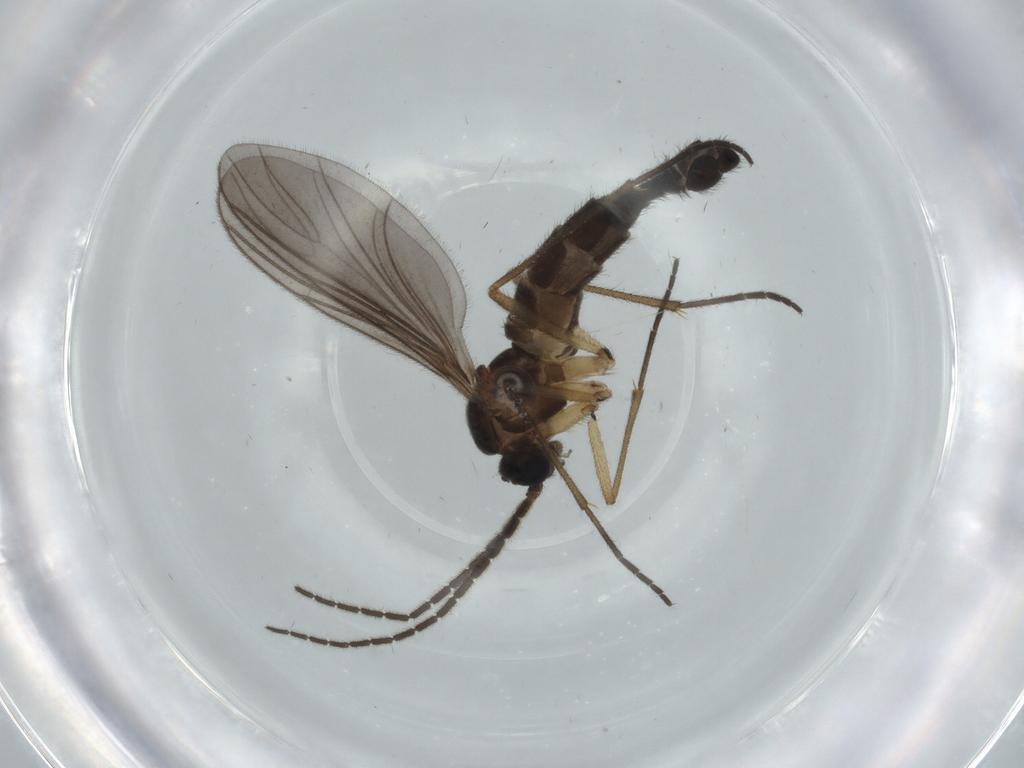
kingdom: Animalia
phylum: Arthropoda
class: Insecta
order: Diptera
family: Sciaridae
